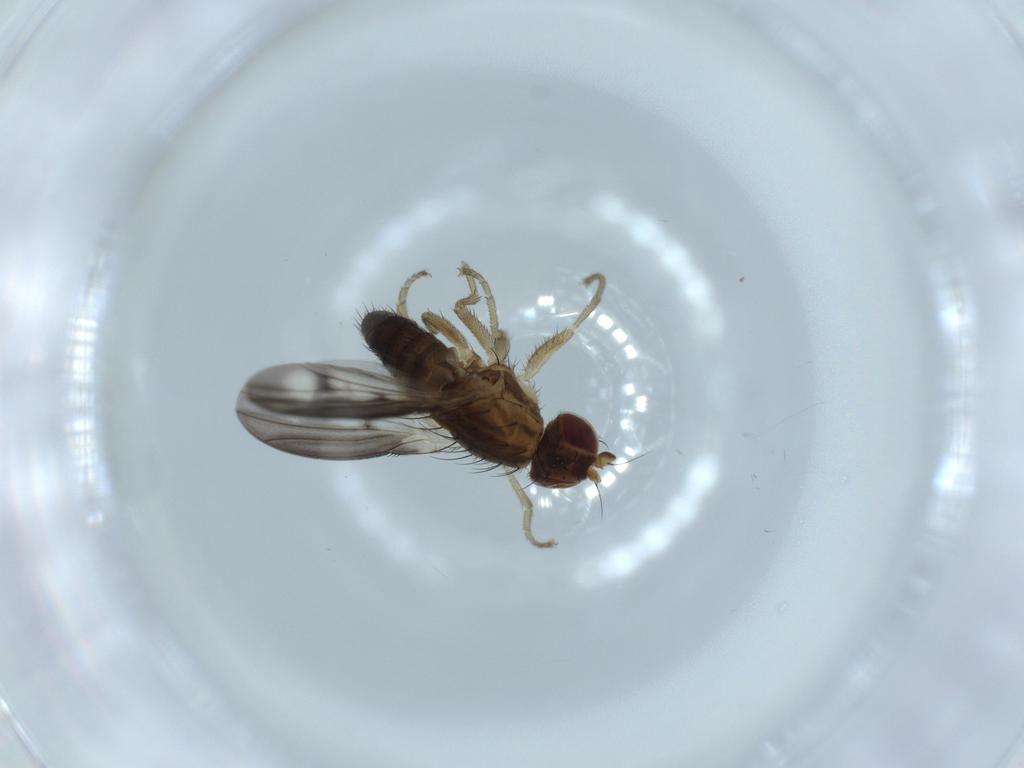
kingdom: Animalia
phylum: Arthropoda
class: Insecta
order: Diptera
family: Heleomyzidae
